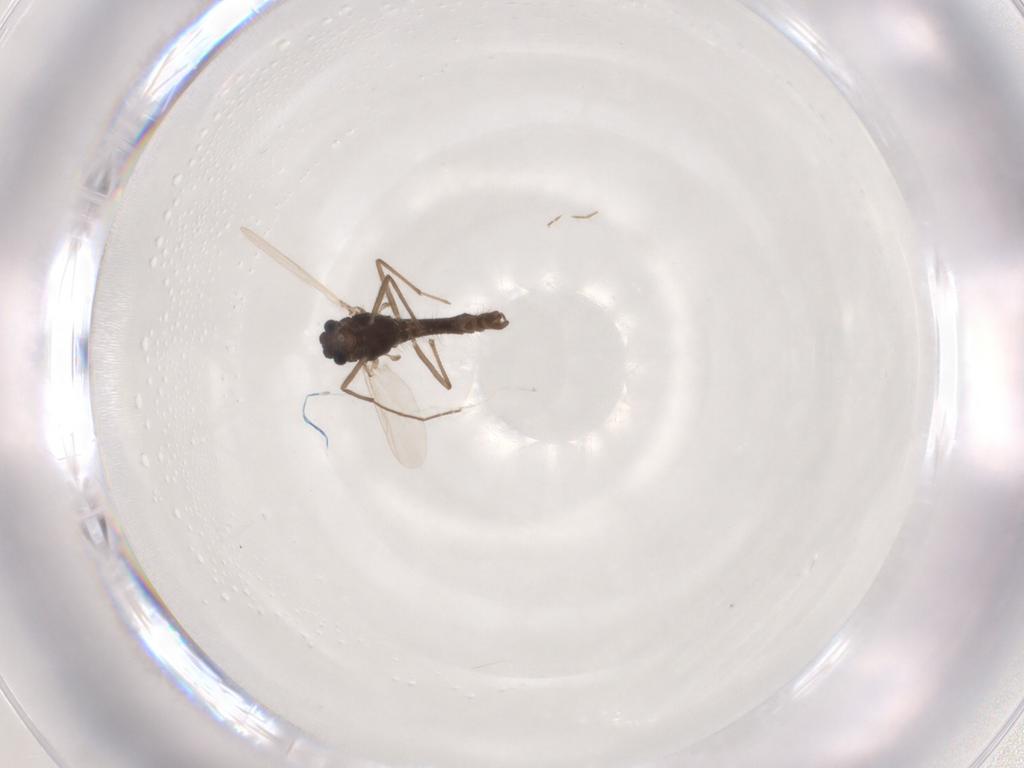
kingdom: Animalia
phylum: Arthropoda
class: Insecta
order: Diptera
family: Chironomidae
